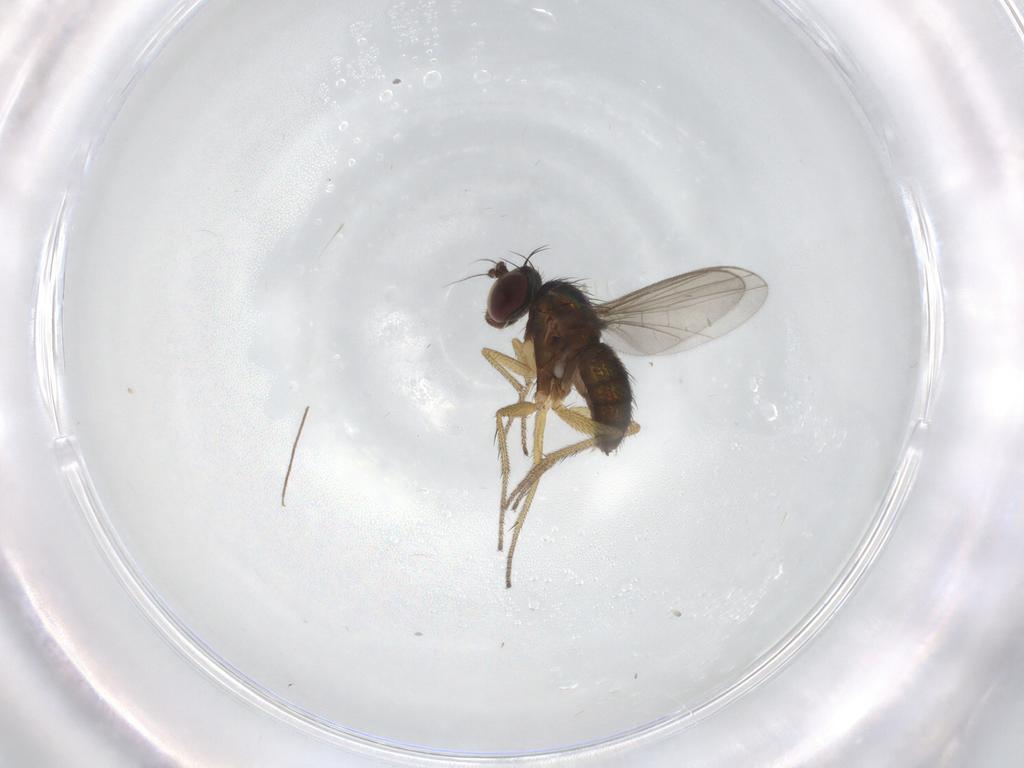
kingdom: Animalia
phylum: Arthropoda
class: Insecta
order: Diptera
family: Chironomidae
